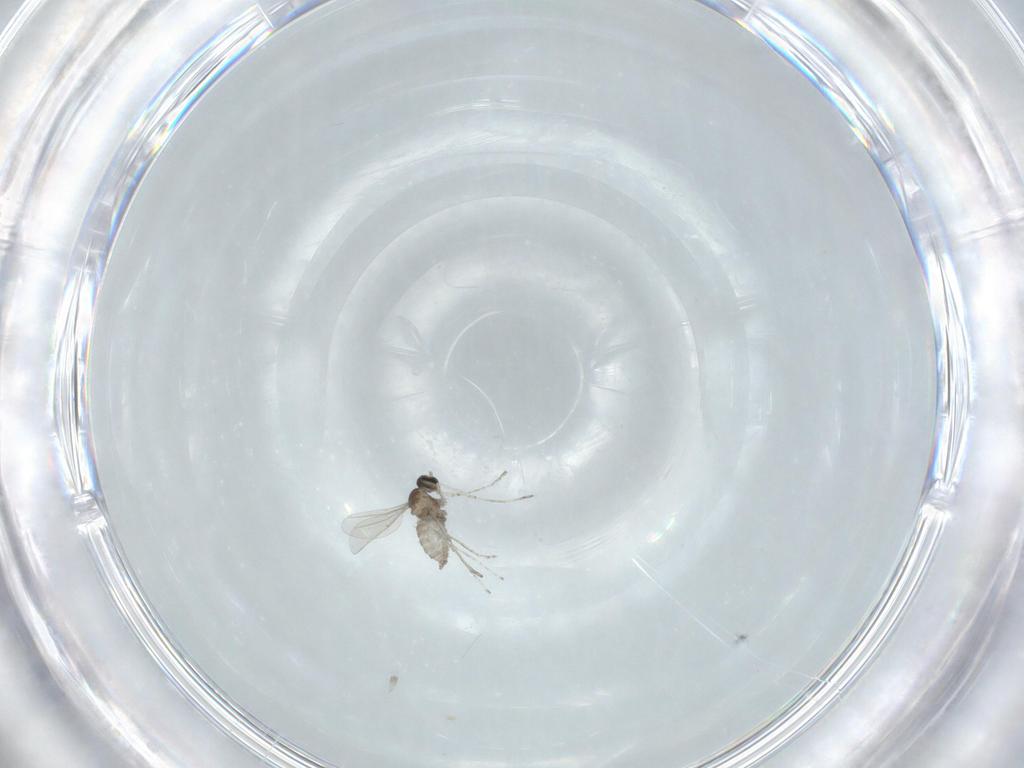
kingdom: Animalia
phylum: Arthropoda
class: Insecta
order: Diptera
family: Cecidomyiidae
